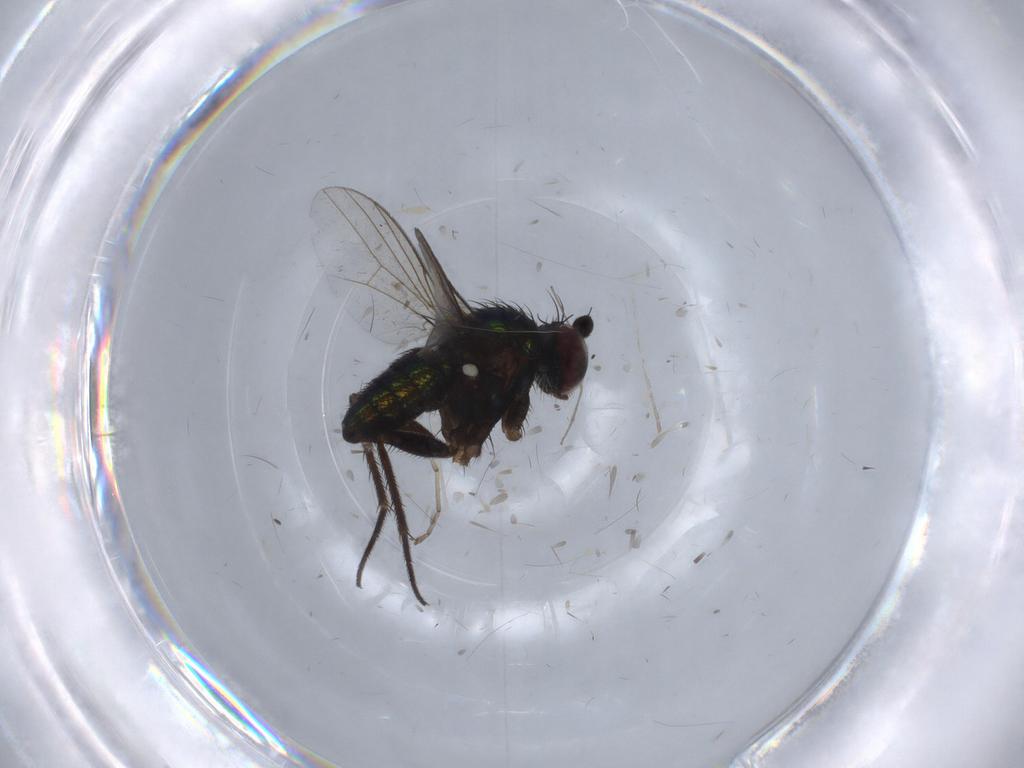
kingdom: Animalia
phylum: Arthropoda
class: Insecta
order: Diptera
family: Dolichopodidae
